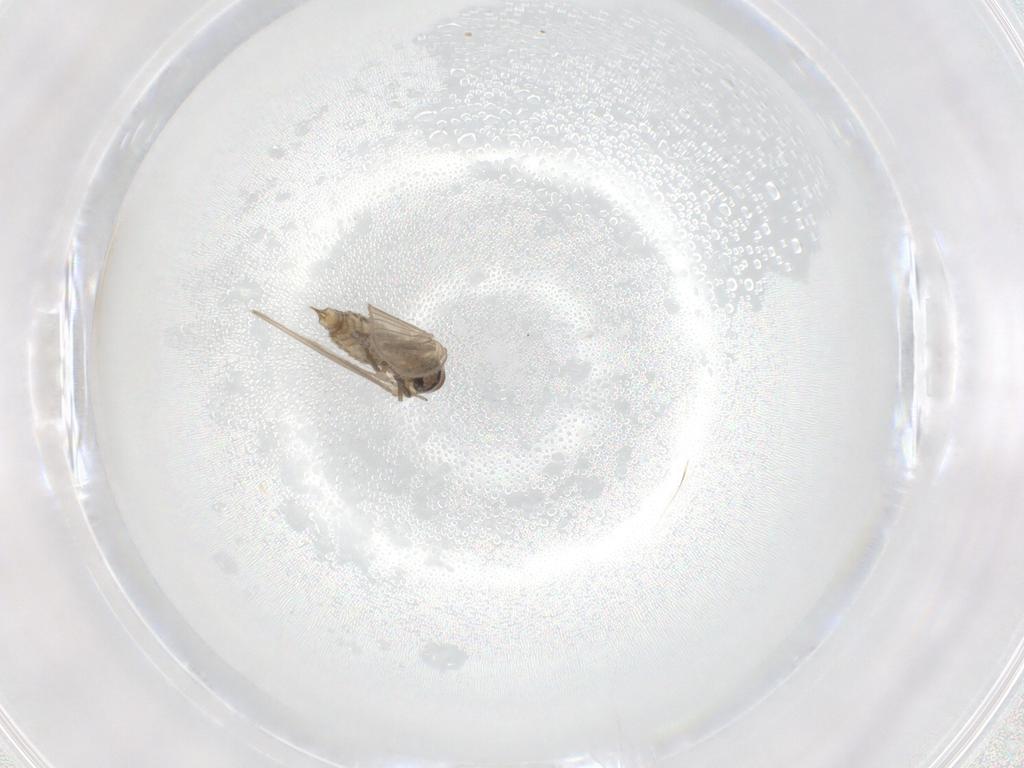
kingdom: Animalia
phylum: Arthropoda
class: Insecta
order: Diptera
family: Psychodidae
